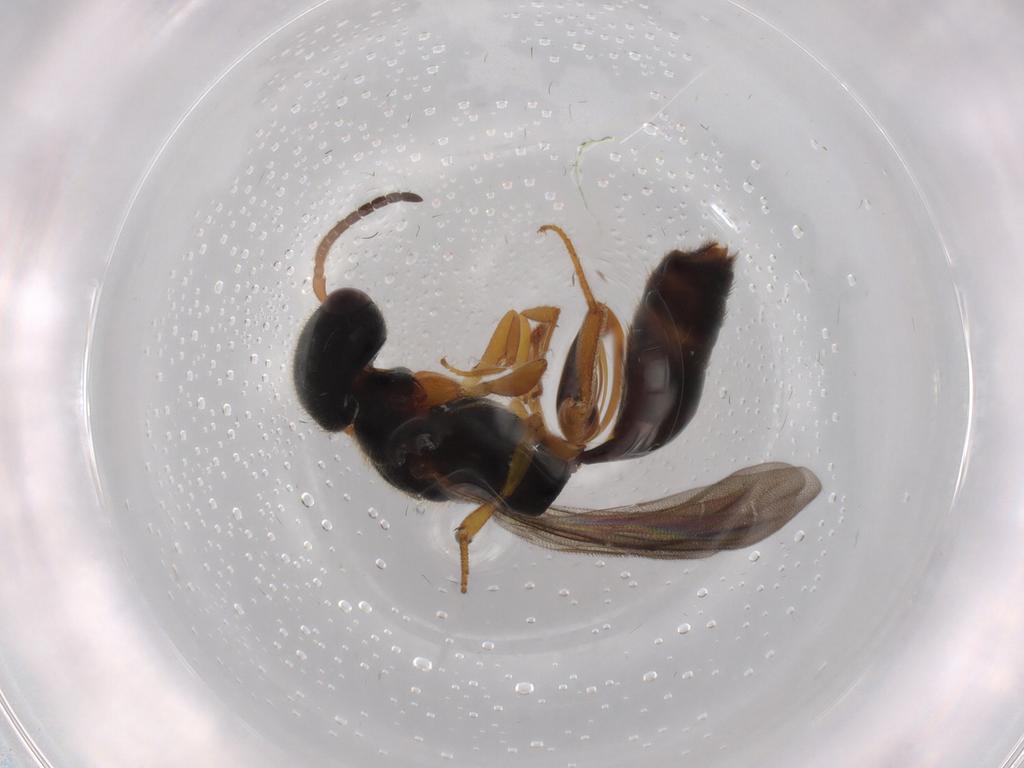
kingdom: Animalia
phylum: Arthropoda
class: Insecta
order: Hymenoptera
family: Bethylidae
